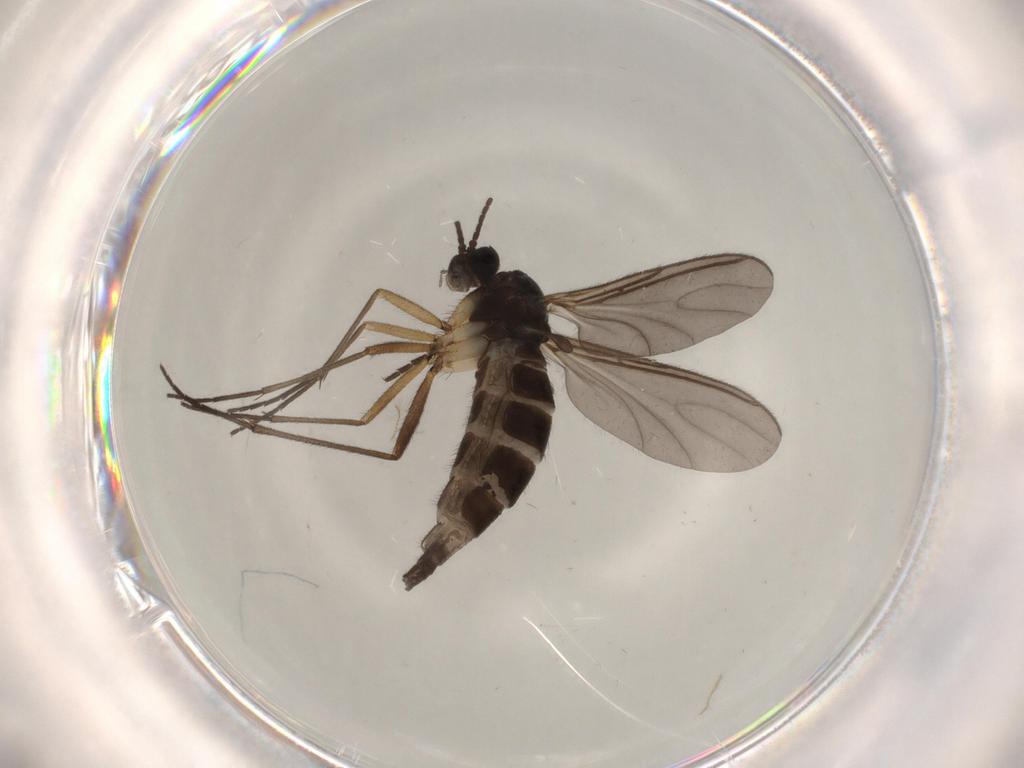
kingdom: Animalia
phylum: Arthropoda
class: Insecta
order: Diptera
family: Sciaridae
